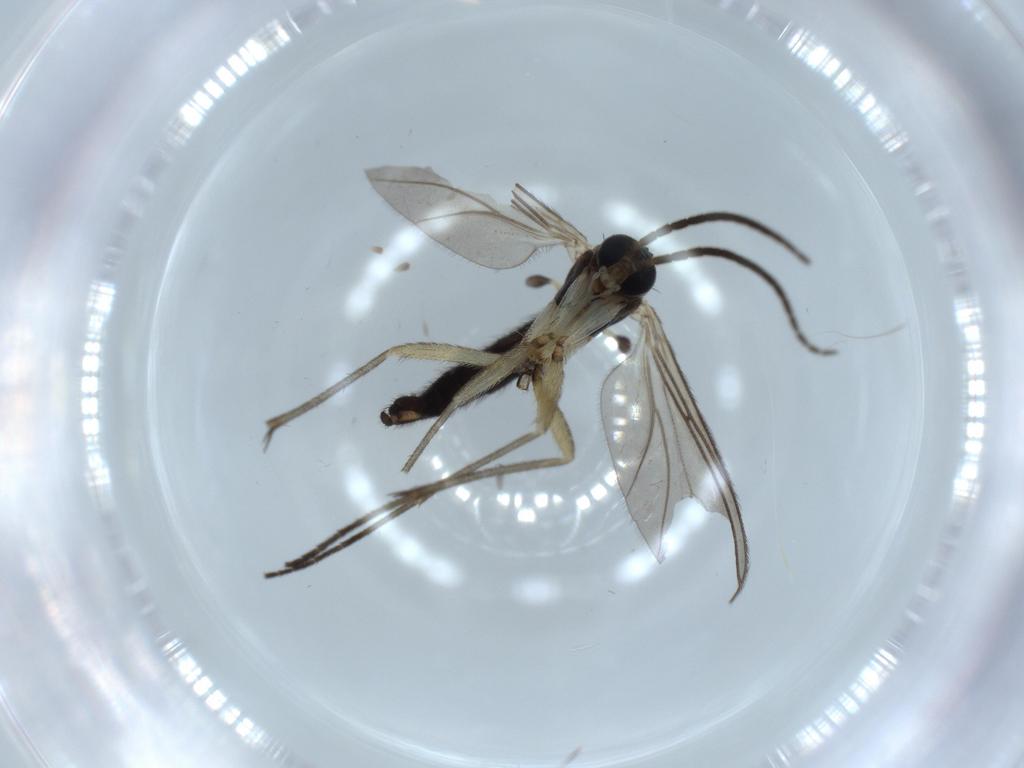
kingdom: Animalia
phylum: Arthropoda
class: Insecta
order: Diptera
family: Sciaridae
